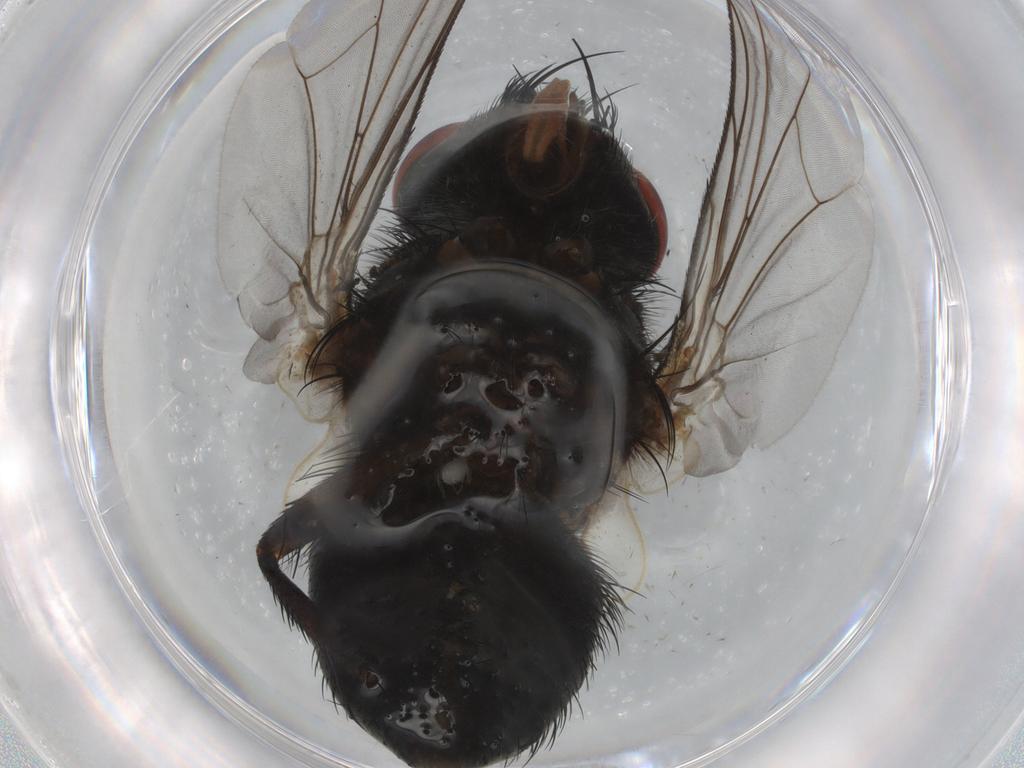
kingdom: Animalia
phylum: Arthropoda
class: Insecta
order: Diptera
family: Tachinidae
